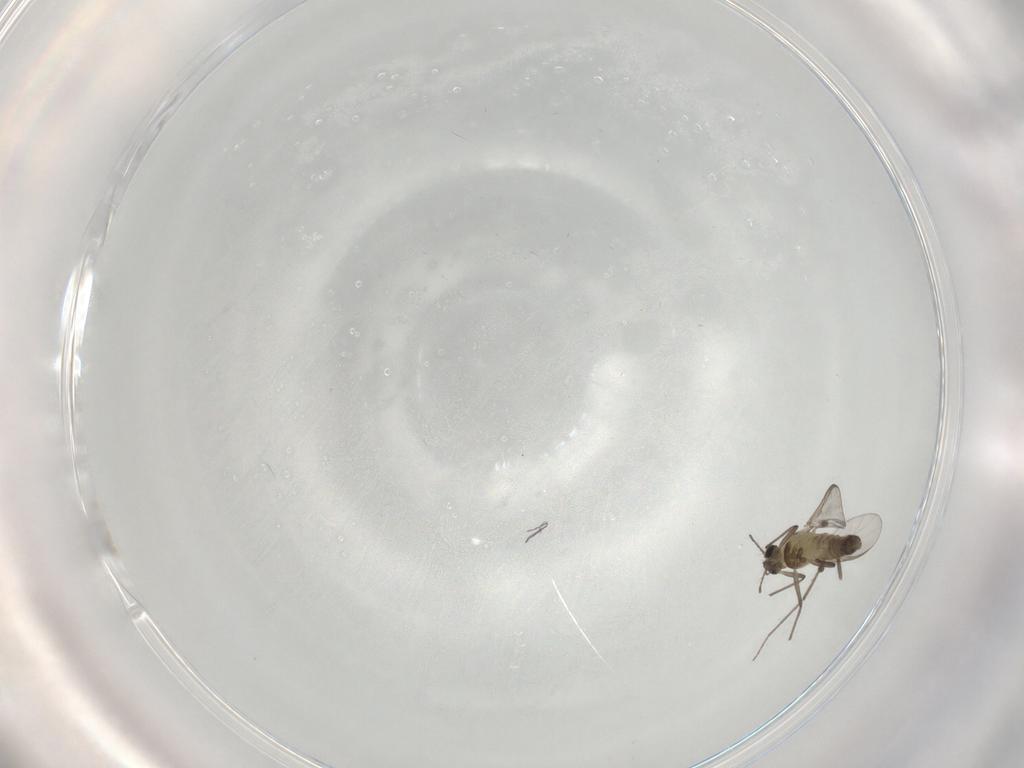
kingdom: Animalia
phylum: Arthropoda
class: Insecta
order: Diptera
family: Chironomidae
